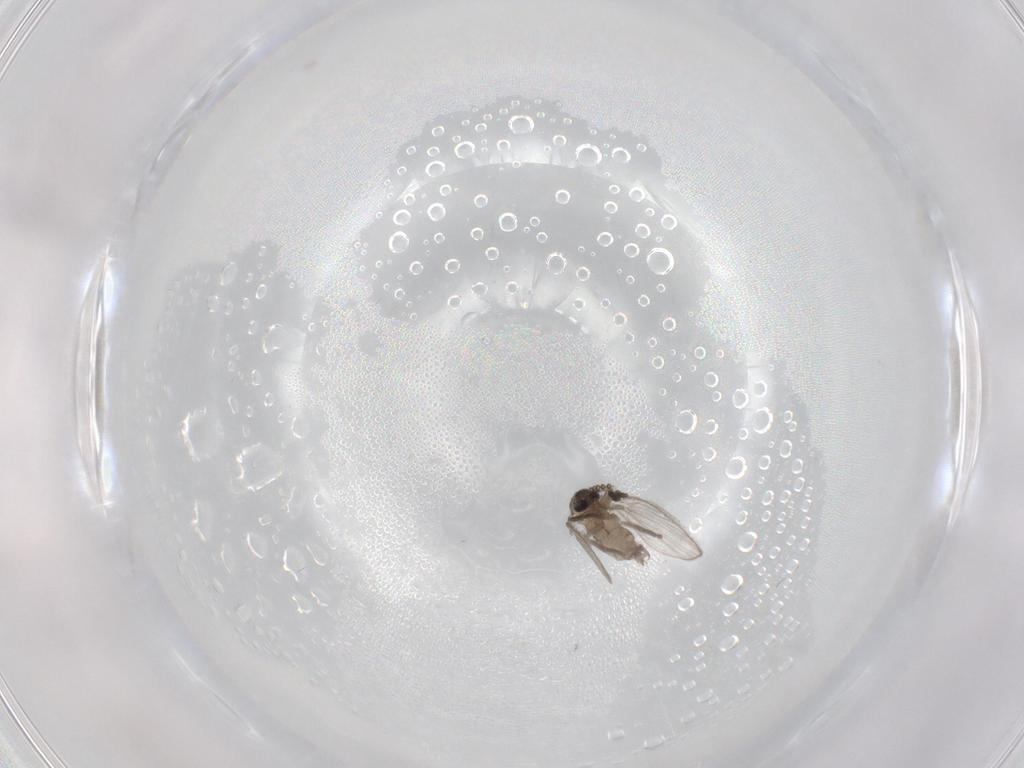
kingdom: Animalia
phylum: Arthropoda
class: Insecta
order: Diptera
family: Psychodidae
